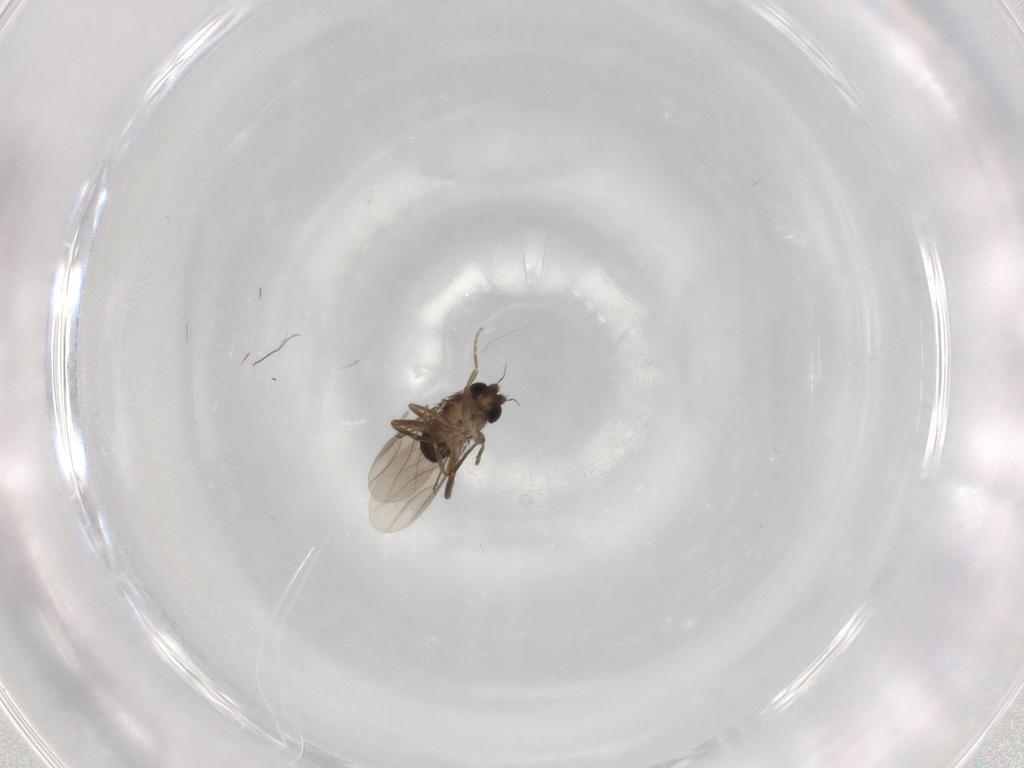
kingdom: Animalia
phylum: Arthropoda
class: Insecta
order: Diptera
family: Phoridae
